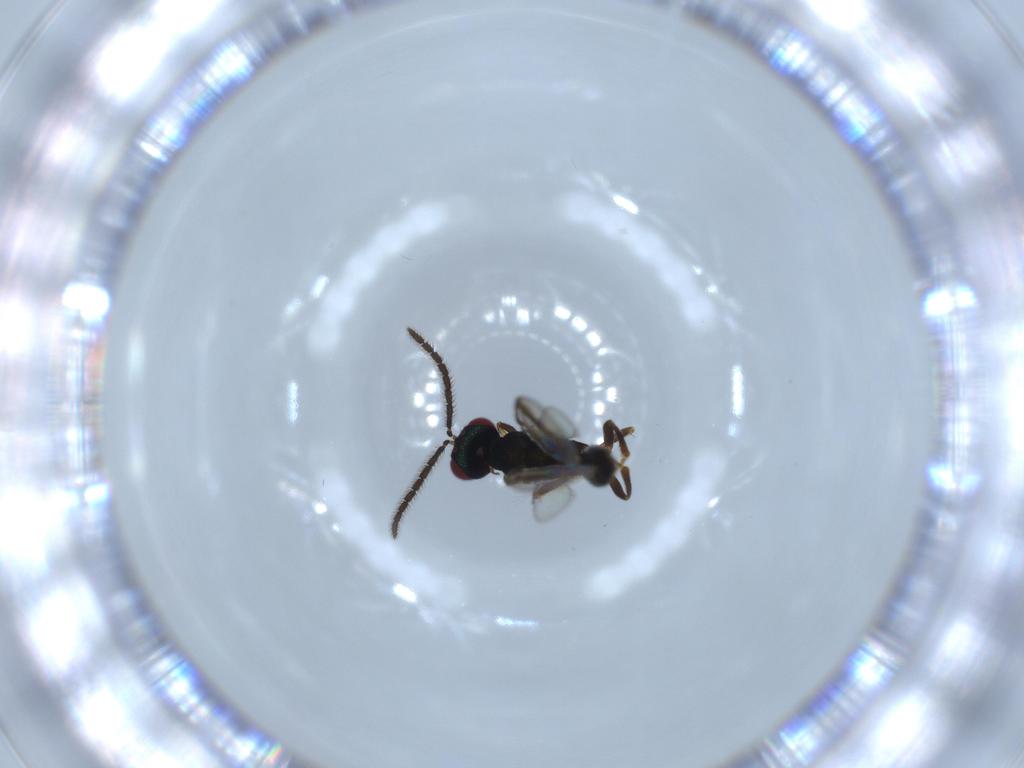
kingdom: Animalia
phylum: Arthropoda
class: Insecta
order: Hymenoptera
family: Pteromalidae
